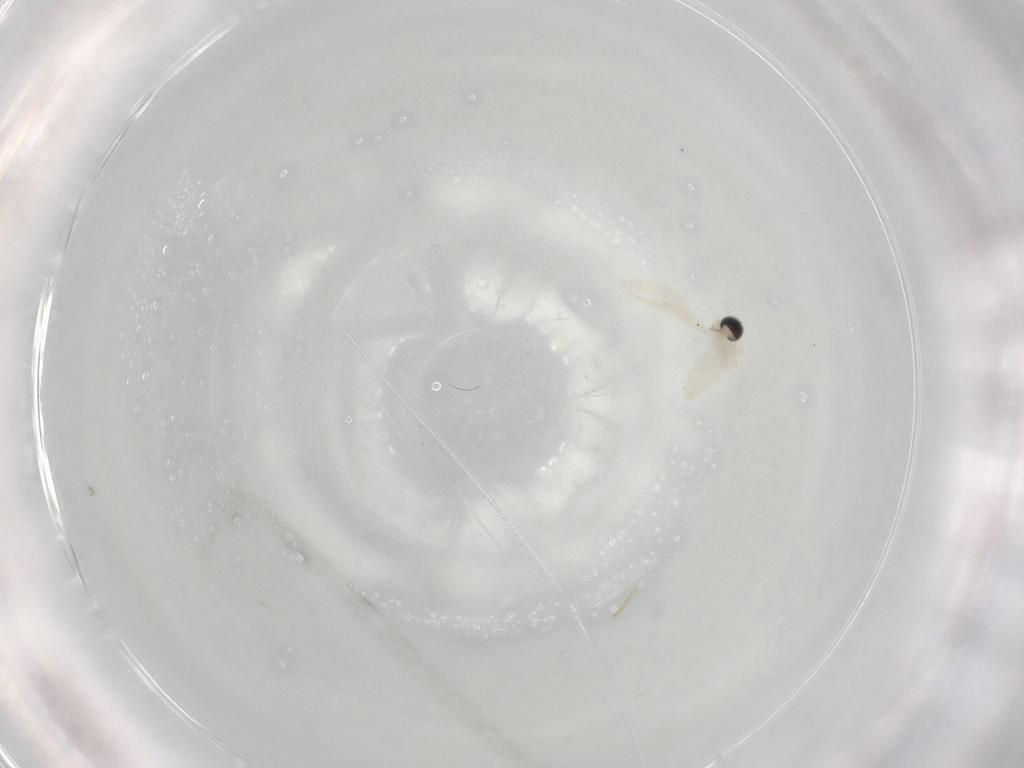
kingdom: Animalia
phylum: Arthropoda
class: Insecta
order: Diptera
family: Cecidomyiidae
